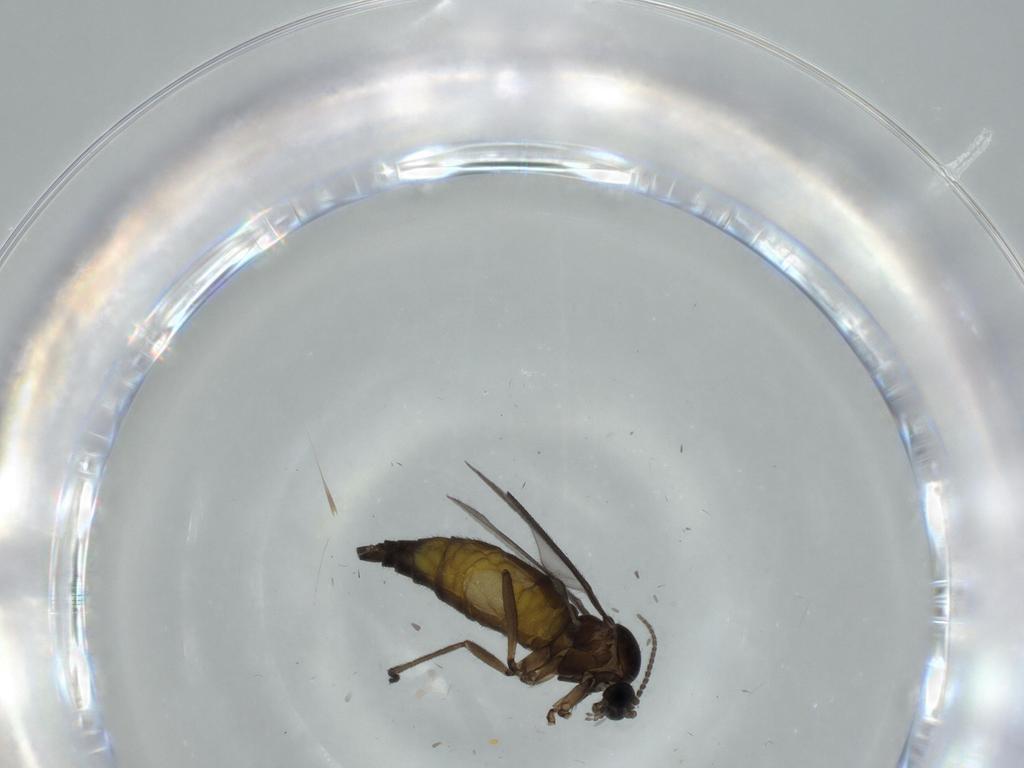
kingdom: Animalia
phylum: Arthropoda
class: Insecta
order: Diptera
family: Sciaridae
